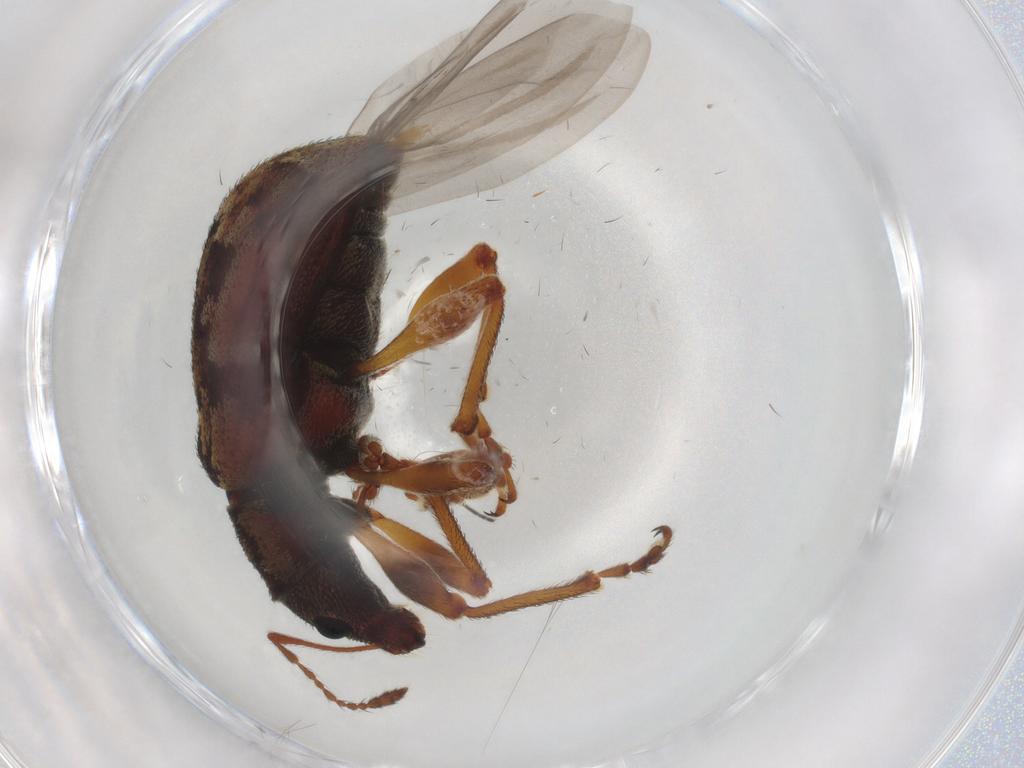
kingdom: Animalia
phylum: Arthropoda
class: Insecta
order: Coleoptera
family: Curculionidae
